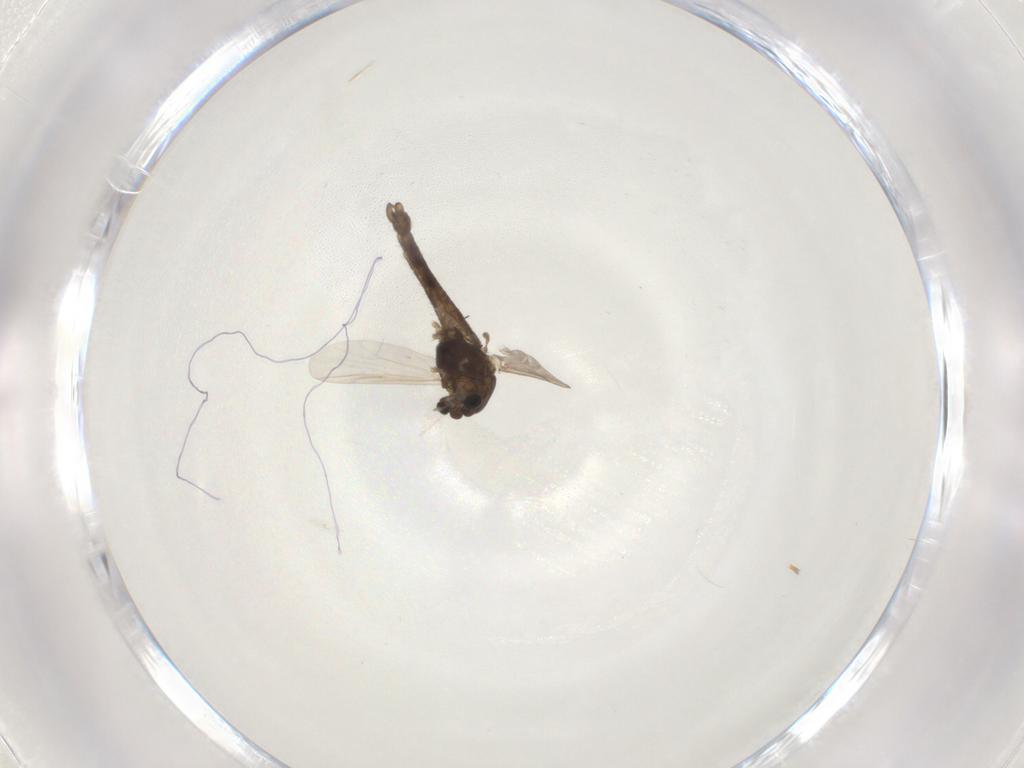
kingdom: Animalia
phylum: Arthropoda
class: Insecta
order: Diptera
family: Chironomidae
